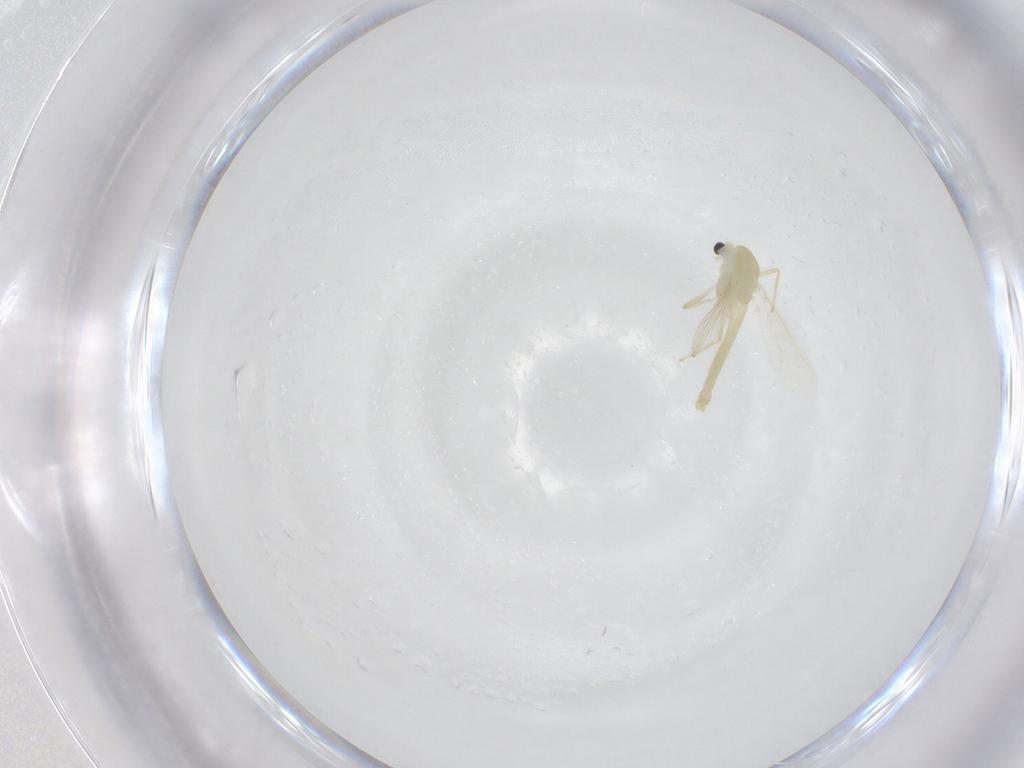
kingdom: Animalia
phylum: Arthropoda
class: Insecta
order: Diptera
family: Chironomidae
